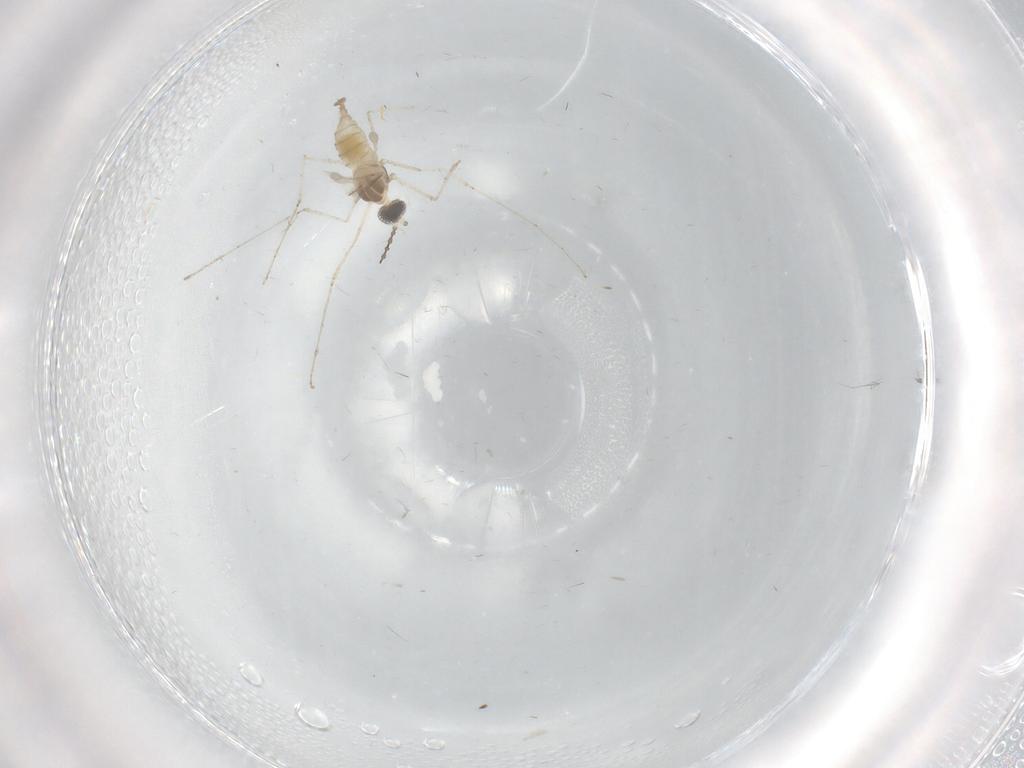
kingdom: Animalia
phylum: Arthropoda
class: Insecta
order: Diptera
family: Cecidomyiidae
